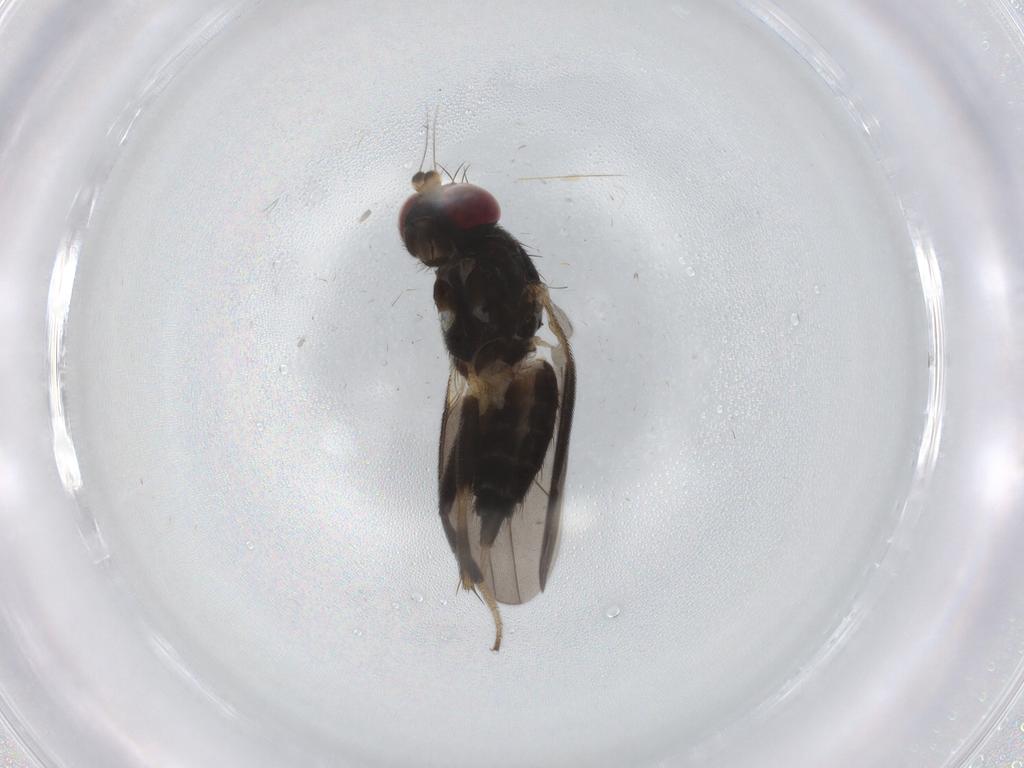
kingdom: Animalia
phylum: Arthropoda
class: Insecta
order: Diptera
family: Clusiidae
